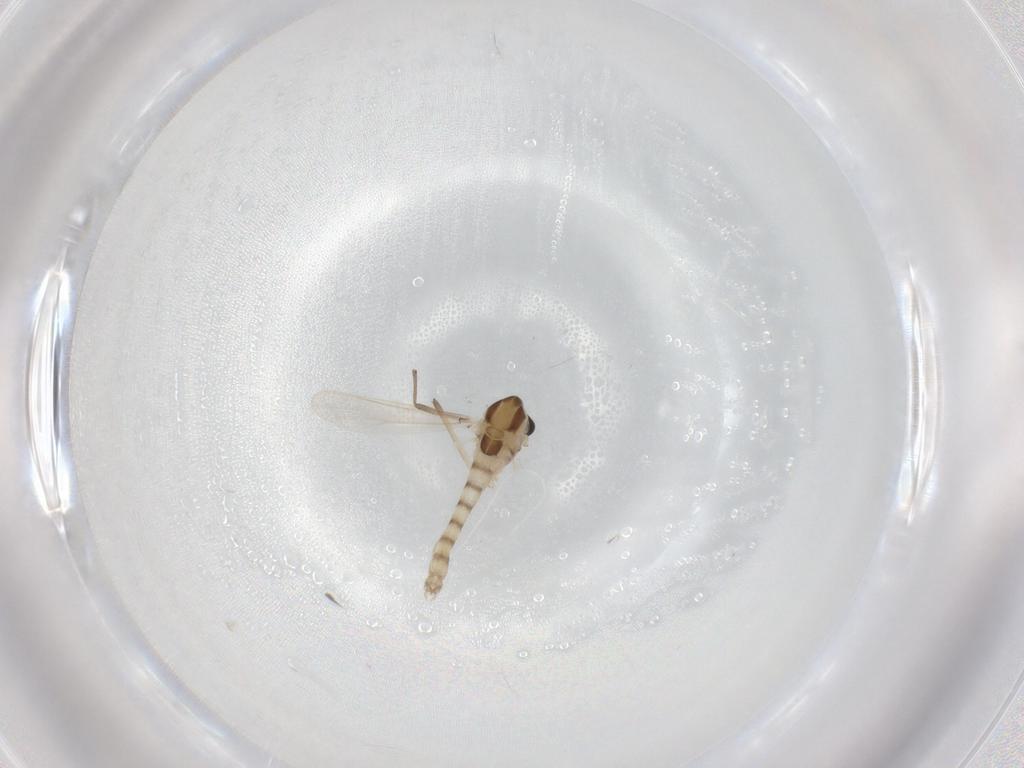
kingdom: Animalia
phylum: Arthropoda
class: Insecta
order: Diptera
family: Chironomidae
